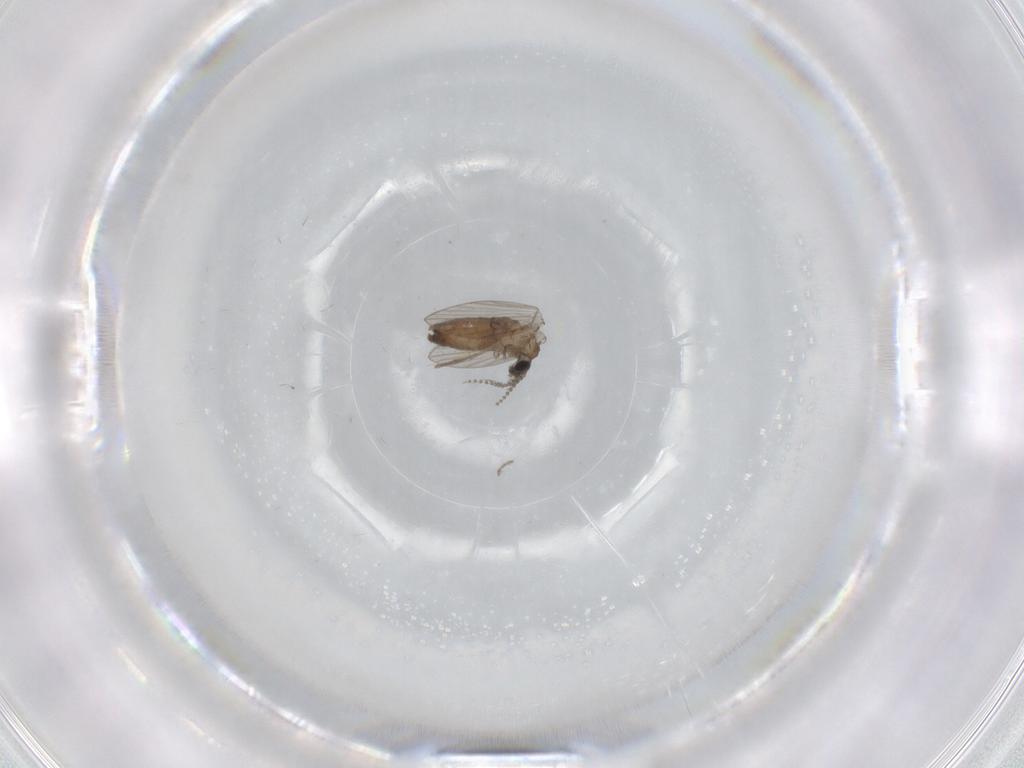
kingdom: Animalia
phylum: Arthropoda
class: Insecta
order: Diptera
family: Psychodidae
